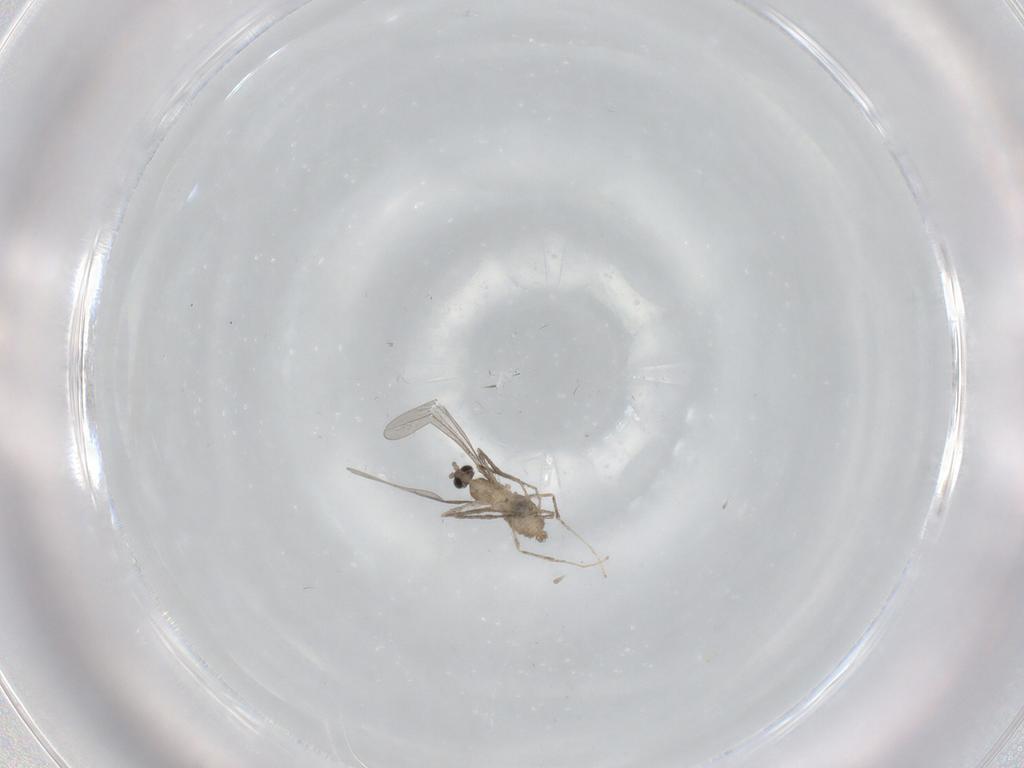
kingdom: Animalia
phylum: Arthropoda
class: Insecta
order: Diptera
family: Cecidomyiidae
